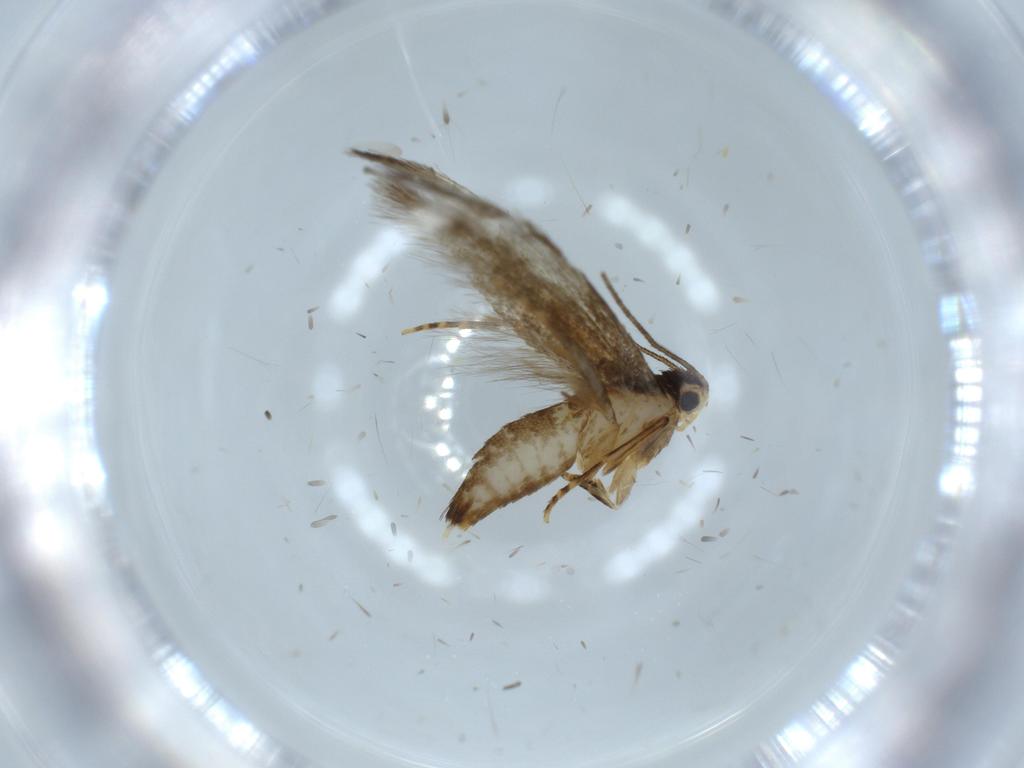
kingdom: Animalia
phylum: Arthropoda
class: Insecta
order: Lepidoptera
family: Tineidae
